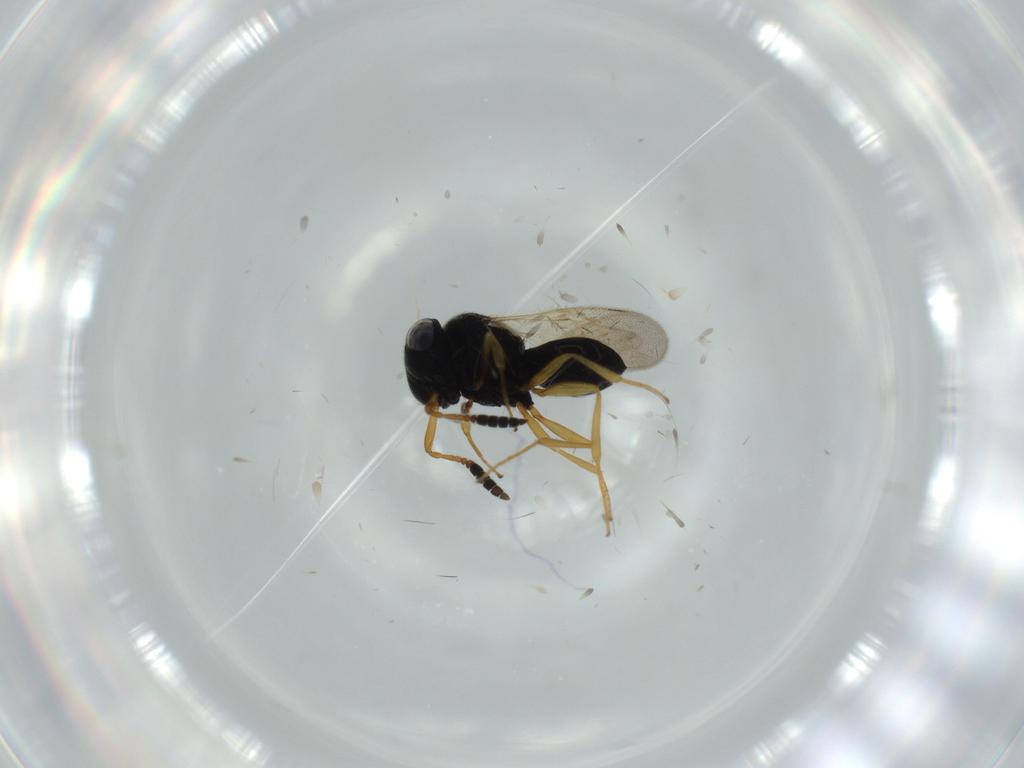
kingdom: Animalia
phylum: Arthropoda
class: Insecta
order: Hymenoptera
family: Scelionidae
